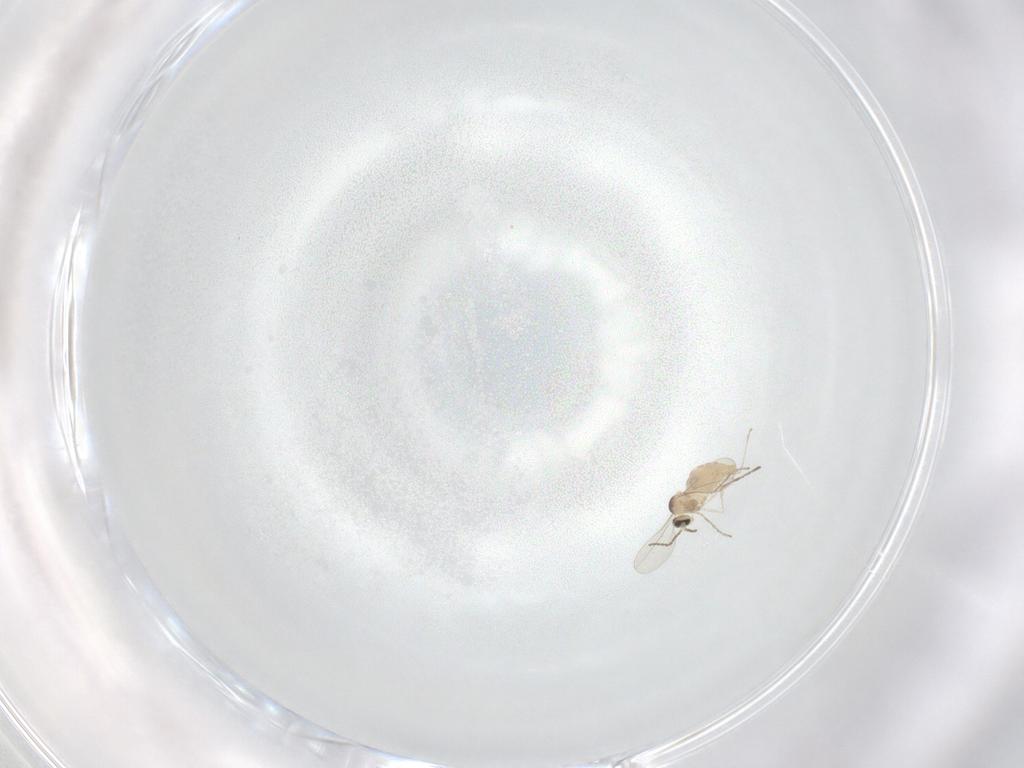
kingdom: Animalia
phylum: Arthropoda
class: Insecta
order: Diptera
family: Cecidomyiidae
